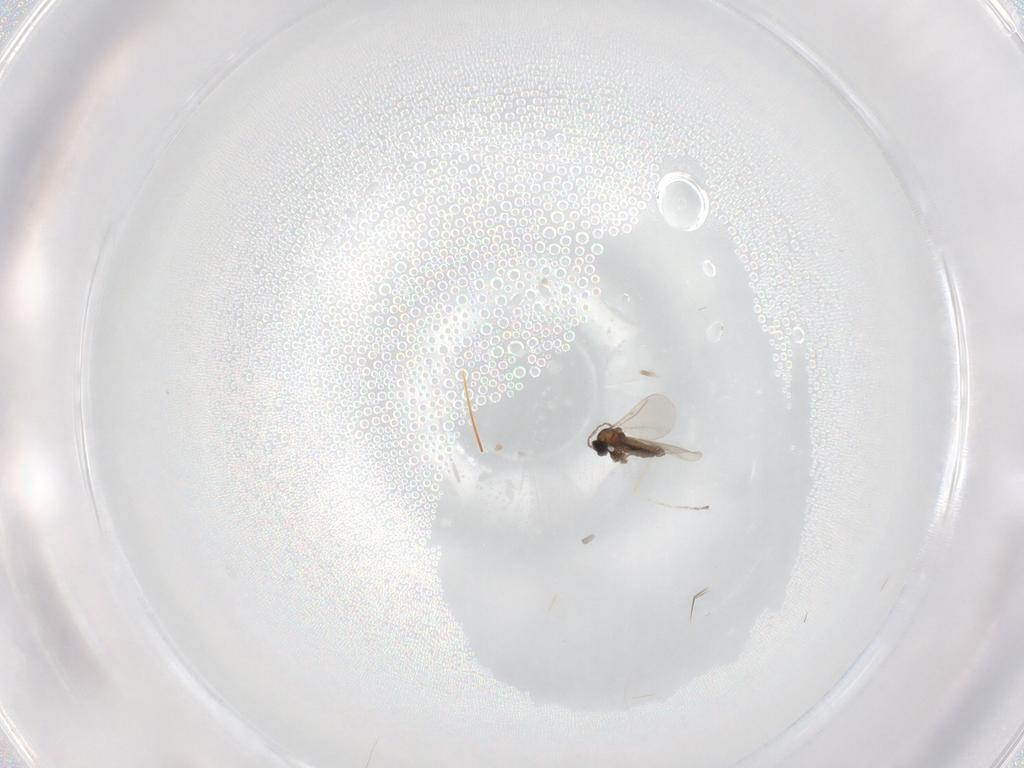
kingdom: Animalia
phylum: Arthropoda
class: Insecta
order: Diptera
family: Cecidomyiidae
